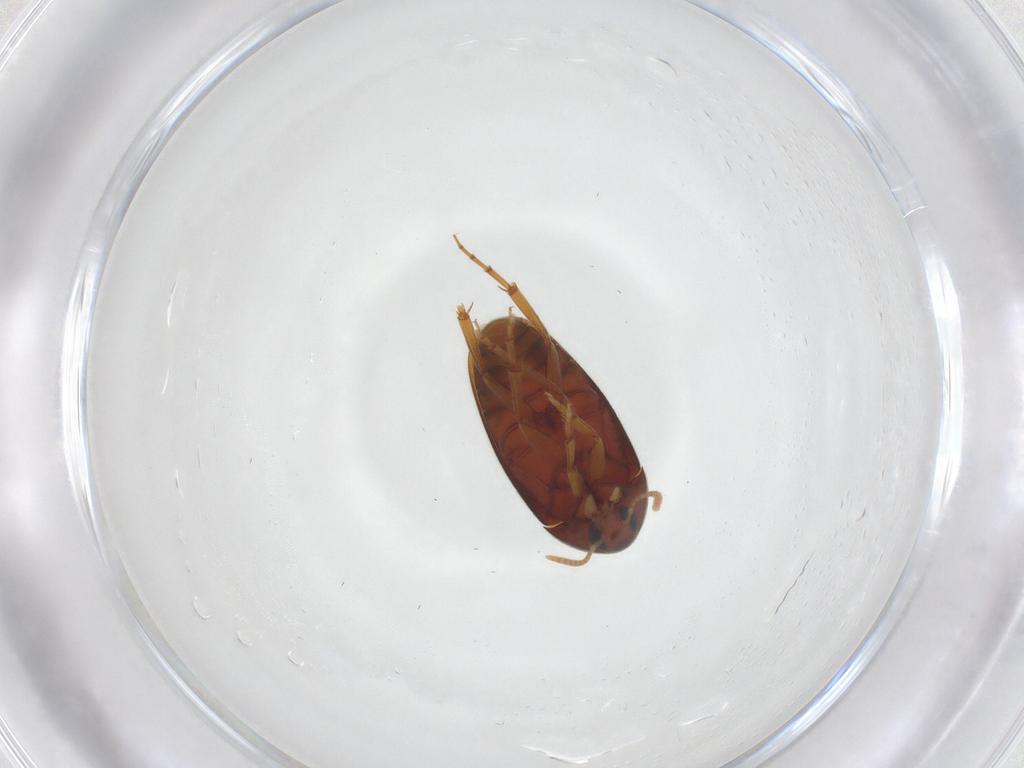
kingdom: Animalia
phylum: Arthropoda
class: Insecta
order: Coleoptera
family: Scraptiidae
